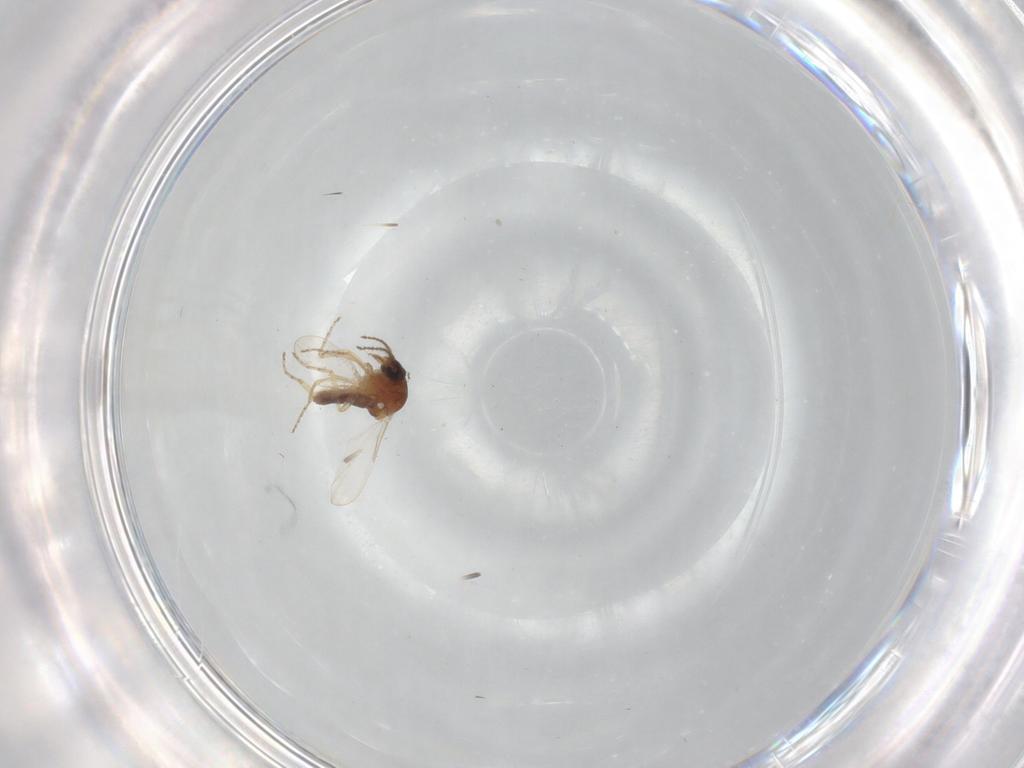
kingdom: Animalia
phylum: Arthropoda
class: Insecta
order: Diptera
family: Ceratopogonidae
